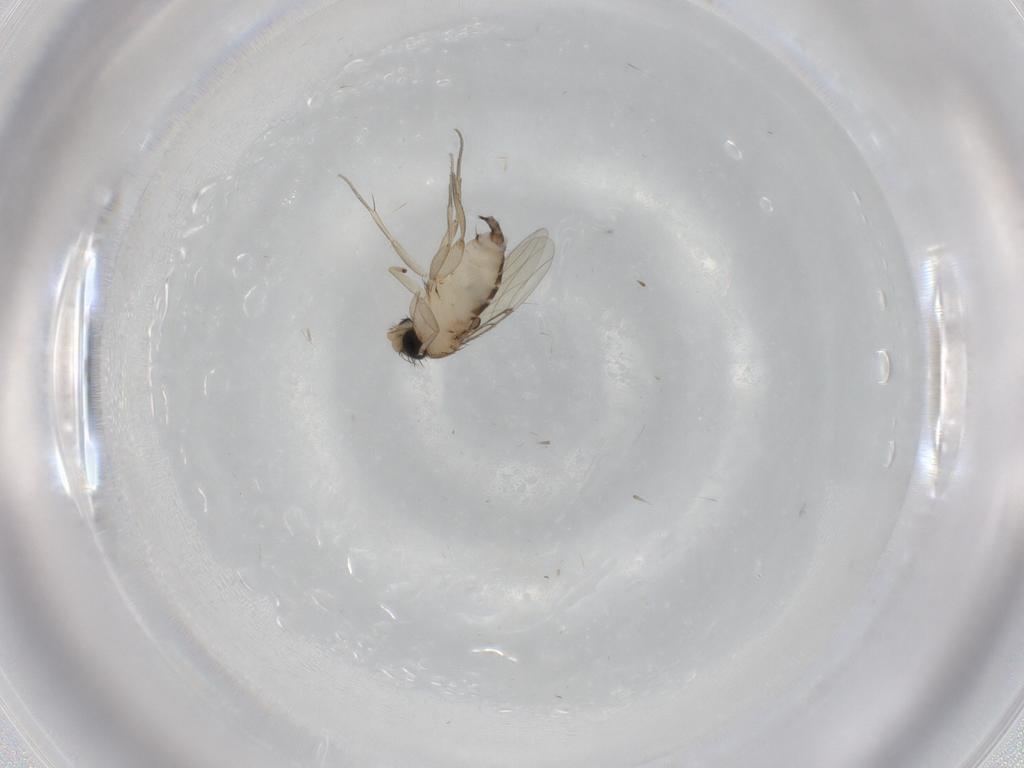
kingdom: Animalia
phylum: Arthropoda
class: Insecta
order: Diptera
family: Phoridae
